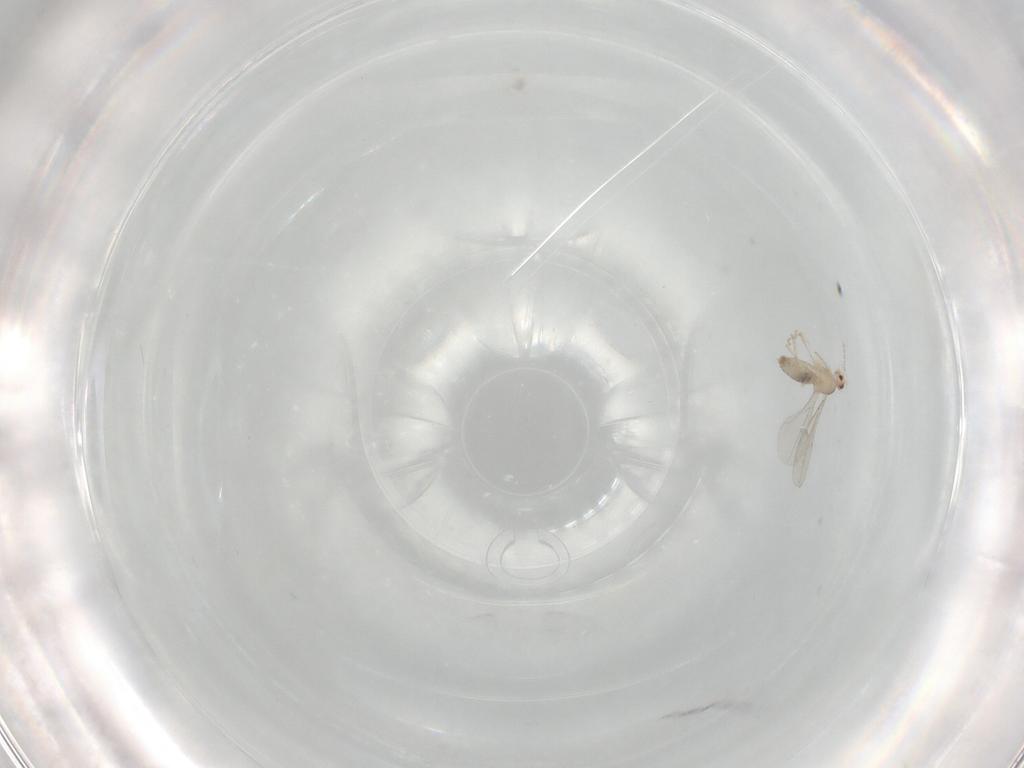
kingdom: Animalia
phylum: Arthropoda
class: Insecta
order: Diptera
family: Cecidomyiidae
